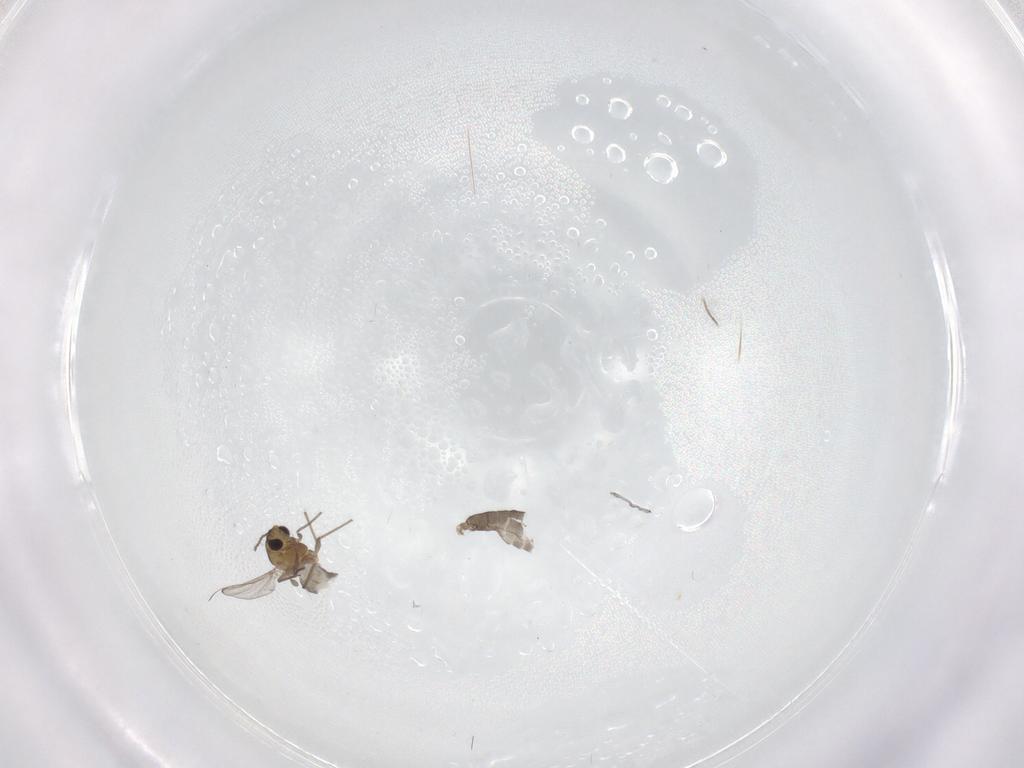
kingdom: Animalia
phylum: Arthropoda
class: Insecta
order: Diptera
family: Chironomidae
